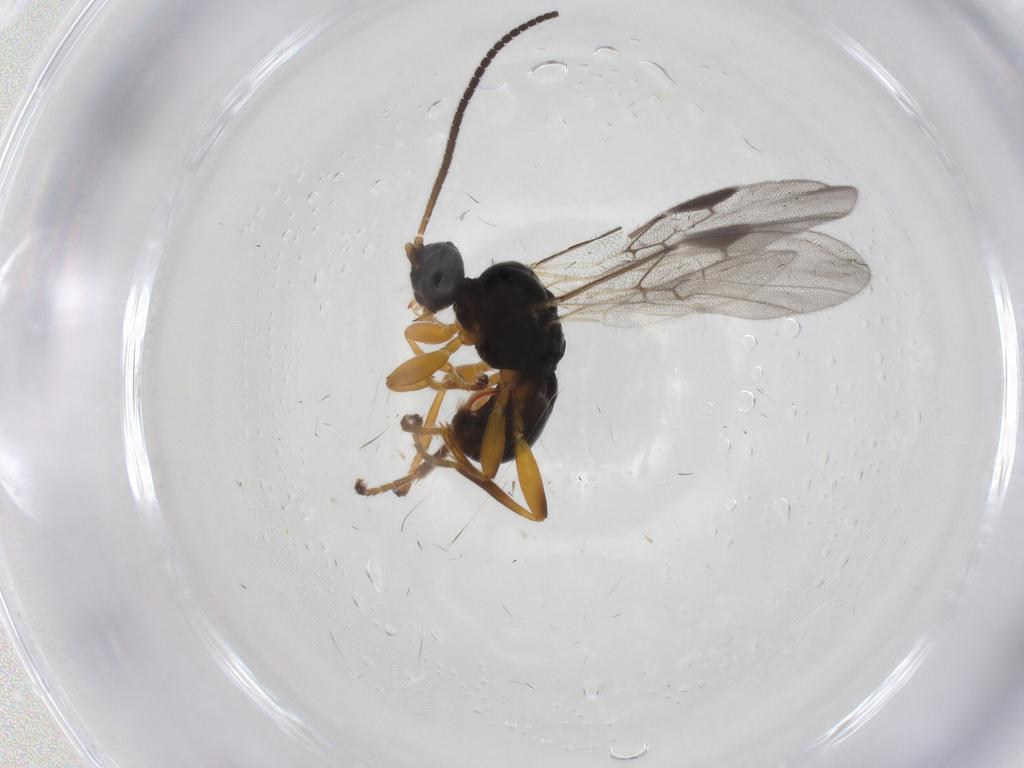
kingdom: Animalia
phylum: Arthropoda
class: Insecta
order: Hymenoptera
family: Braconidae
